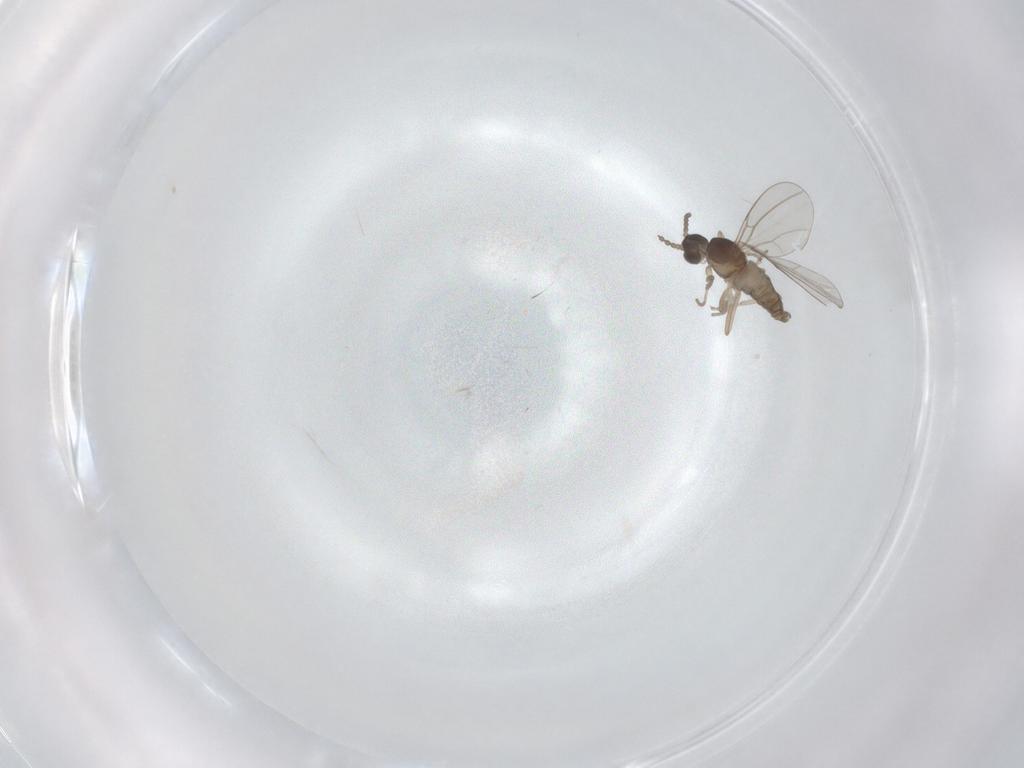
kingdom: Animalia
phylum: Arthropoda
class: Insecta
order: Diptera
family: Cecidomyiidae
